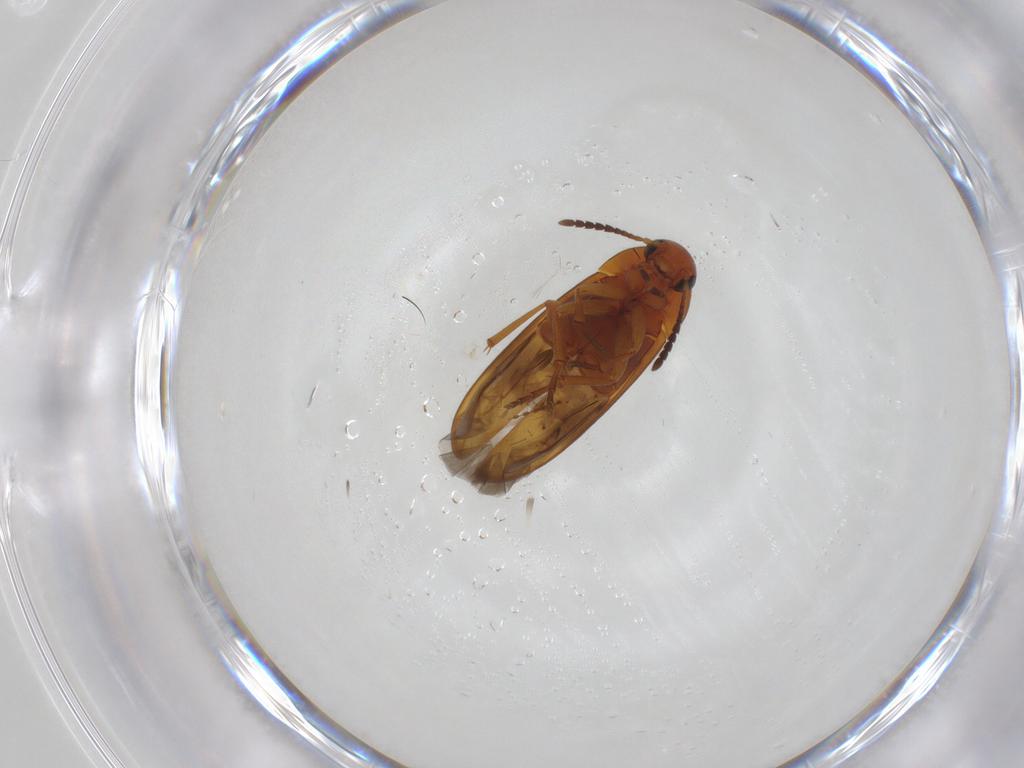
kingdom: Animalia
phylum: Arthropoda
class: Insecta
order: Coleoptera
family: Scraptiidae
